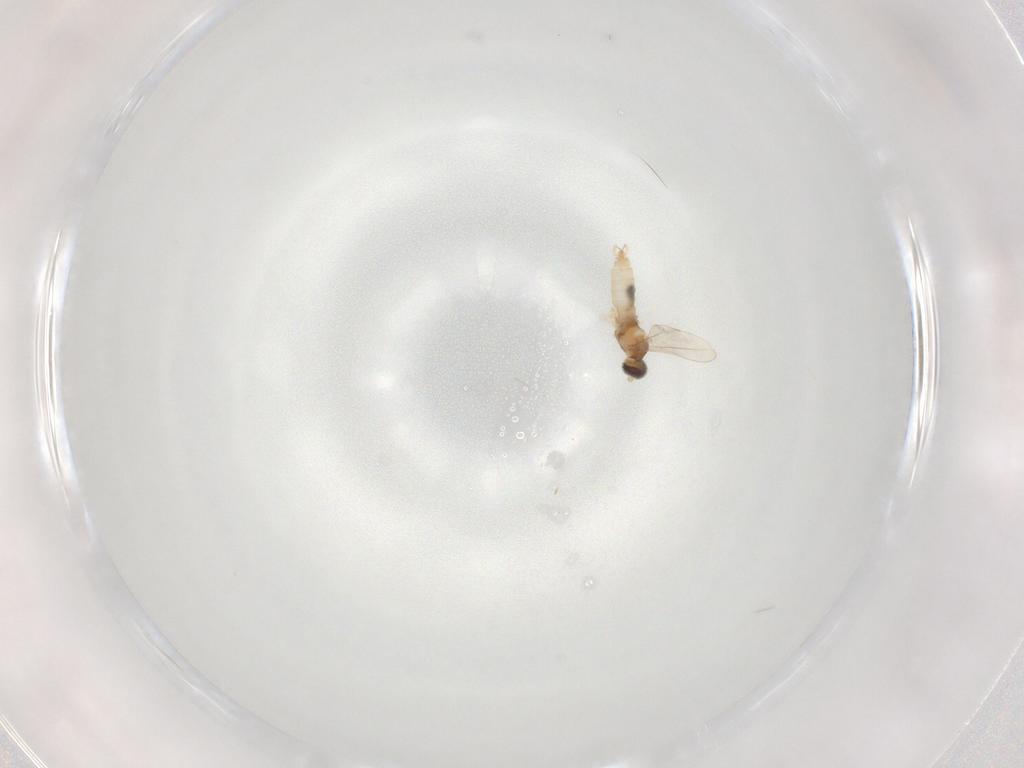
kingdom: Animalia
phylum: Arthropoda
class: Insecta
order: Diptera
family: Cecidomyiidae
